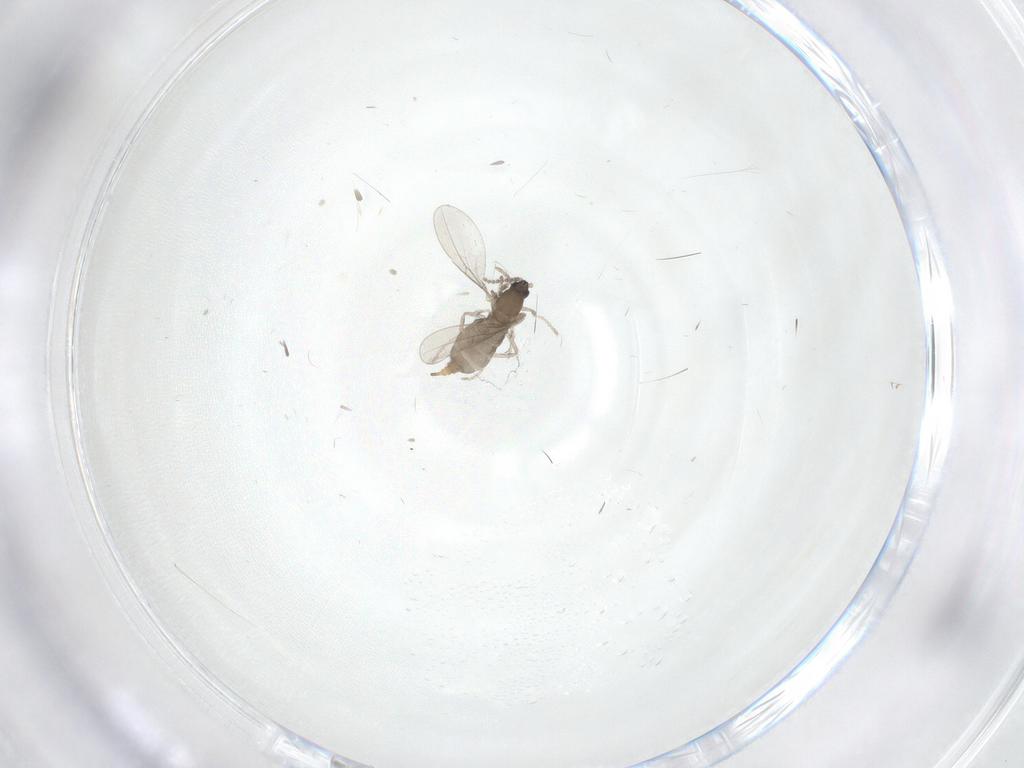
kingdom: Animalia
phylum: Arthropoda
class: Insecta
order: Diptera
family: Cecidomyiidae
